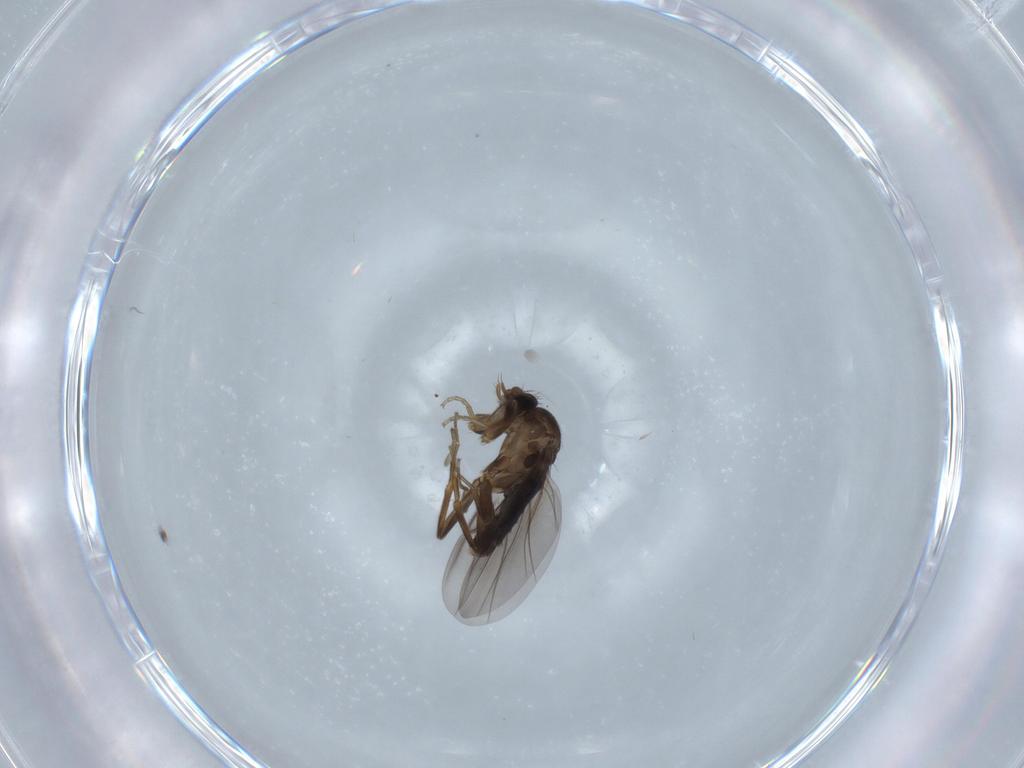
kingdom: Animalia
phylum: Arthropoda
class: Insecta
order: Diptera
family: Phoridae
